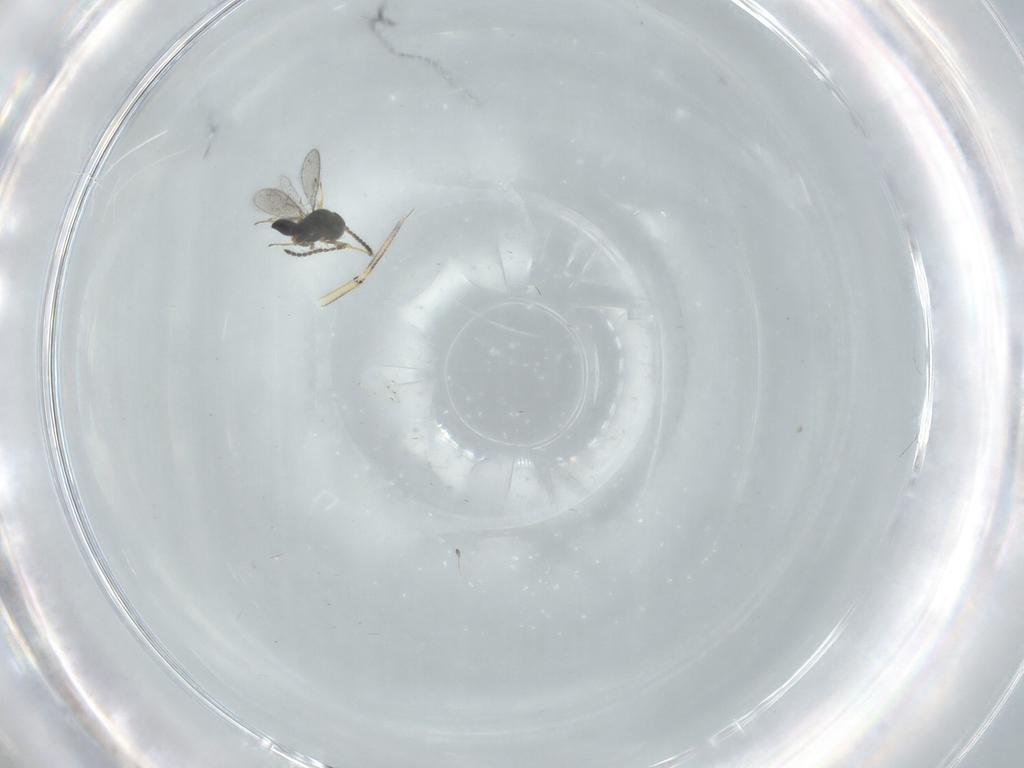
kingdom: Animalia
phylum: Arthropoda
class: Insecta
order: Hymenoptera
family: Scelionidae
